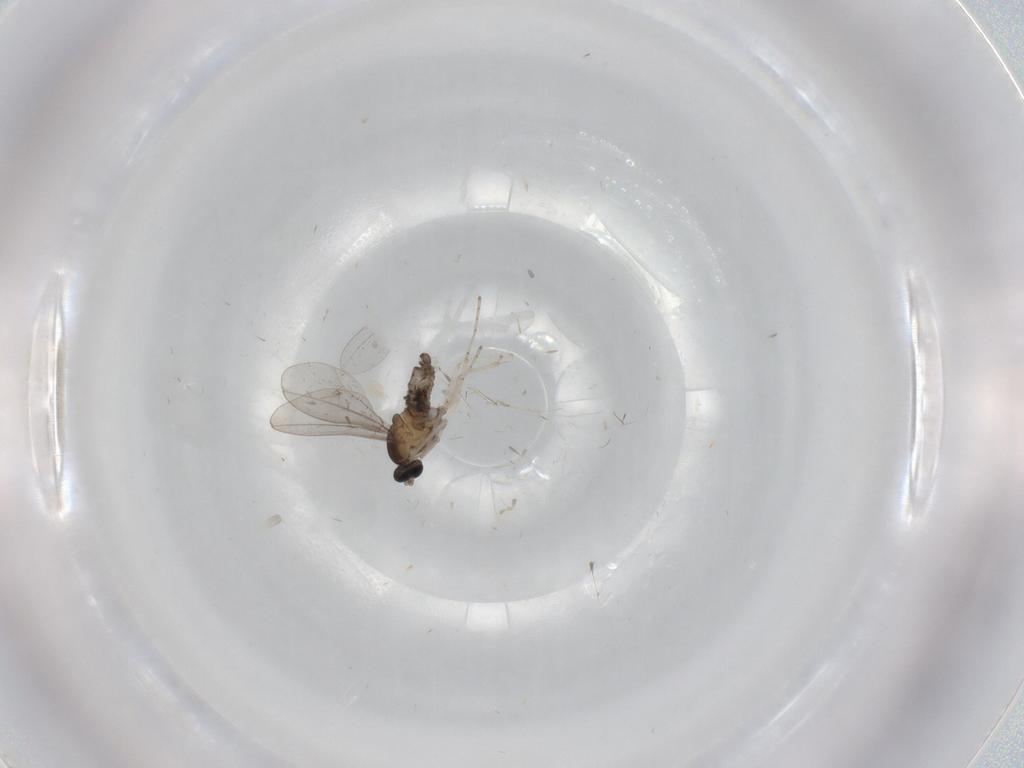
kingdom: Animalia
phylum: Arthropoda
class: Insecta
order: Diptera
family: Cecidomyiidae
